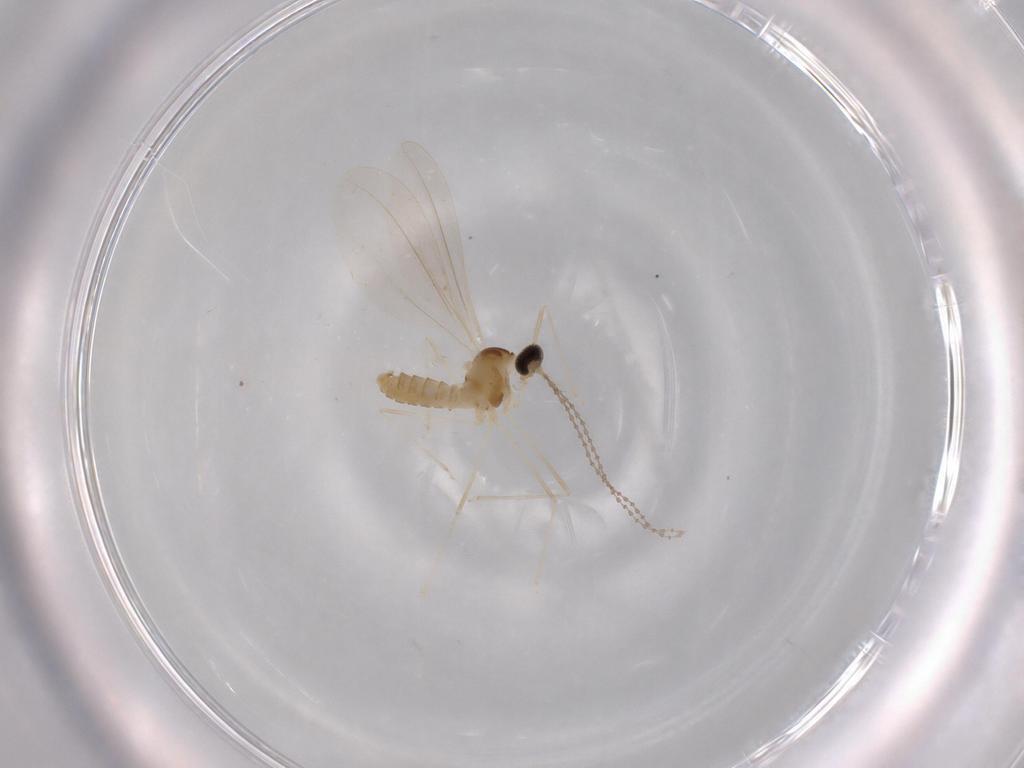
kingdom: Animalia
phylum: Arthropoda
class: Insecta
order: Diptera
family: Cecidomyiidae
